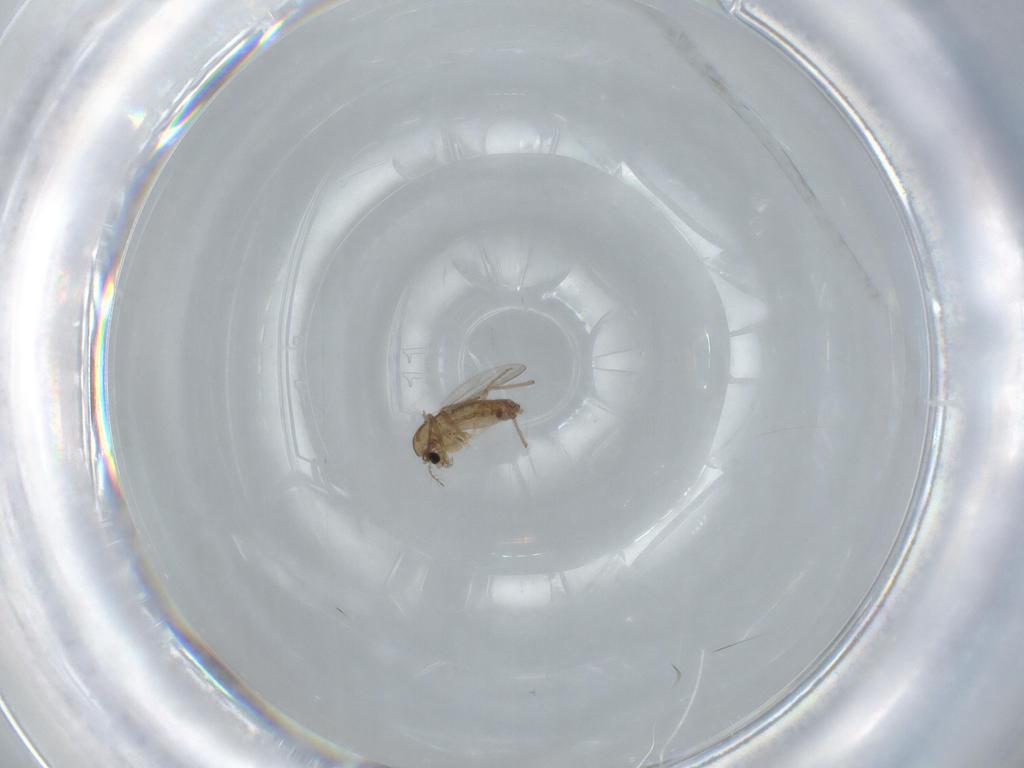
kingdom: Animalia
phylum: Arthropoda
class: Insecta
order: Diptera
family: Chironomidae
